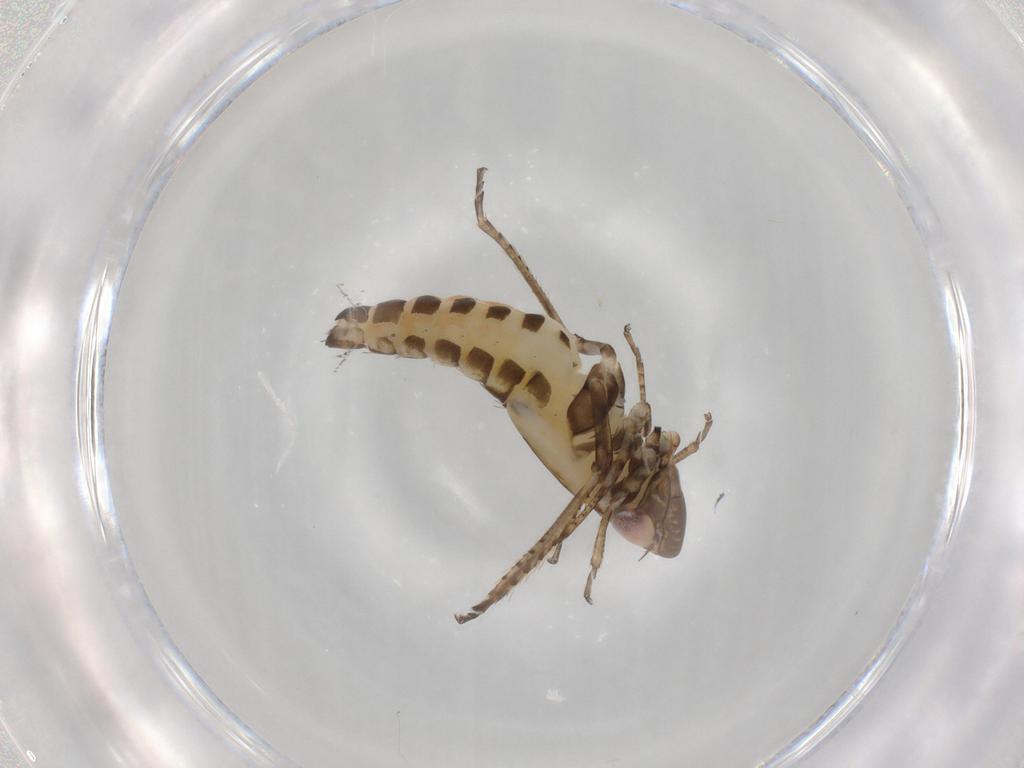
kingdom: Animalia
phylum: Arthropoda
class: Insecta
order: Hemiptera
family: Cicadellidae
